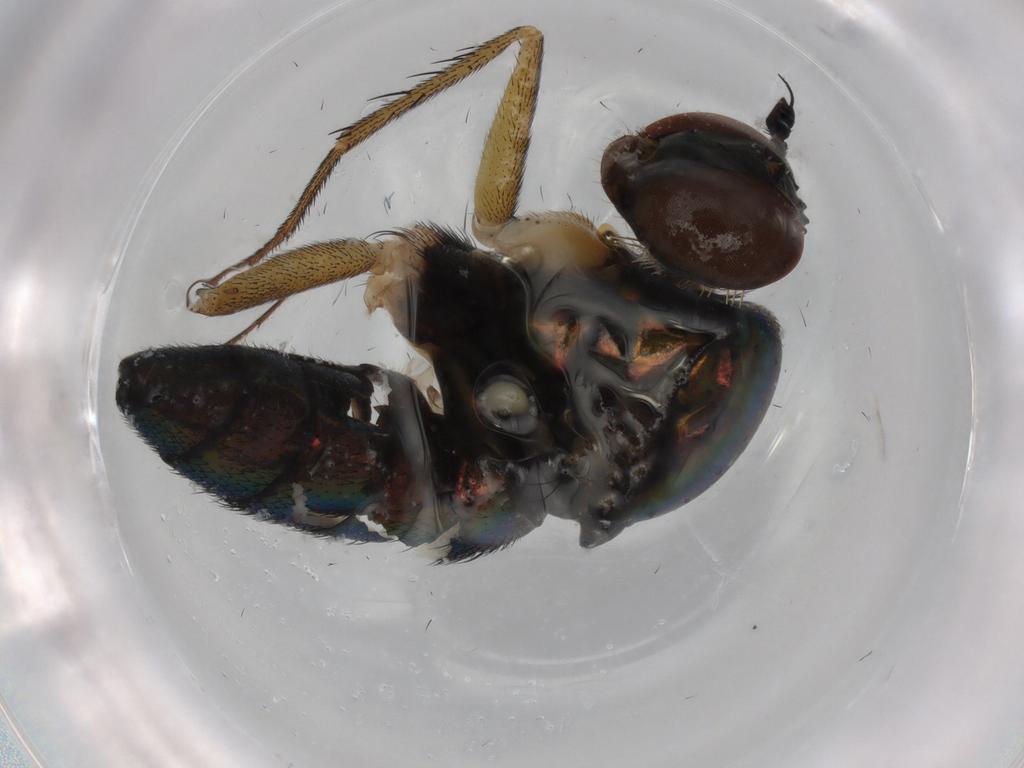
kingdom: Animalia
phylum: Arthropoda
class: Insecta
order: Diptera
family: Dolichopodidae
